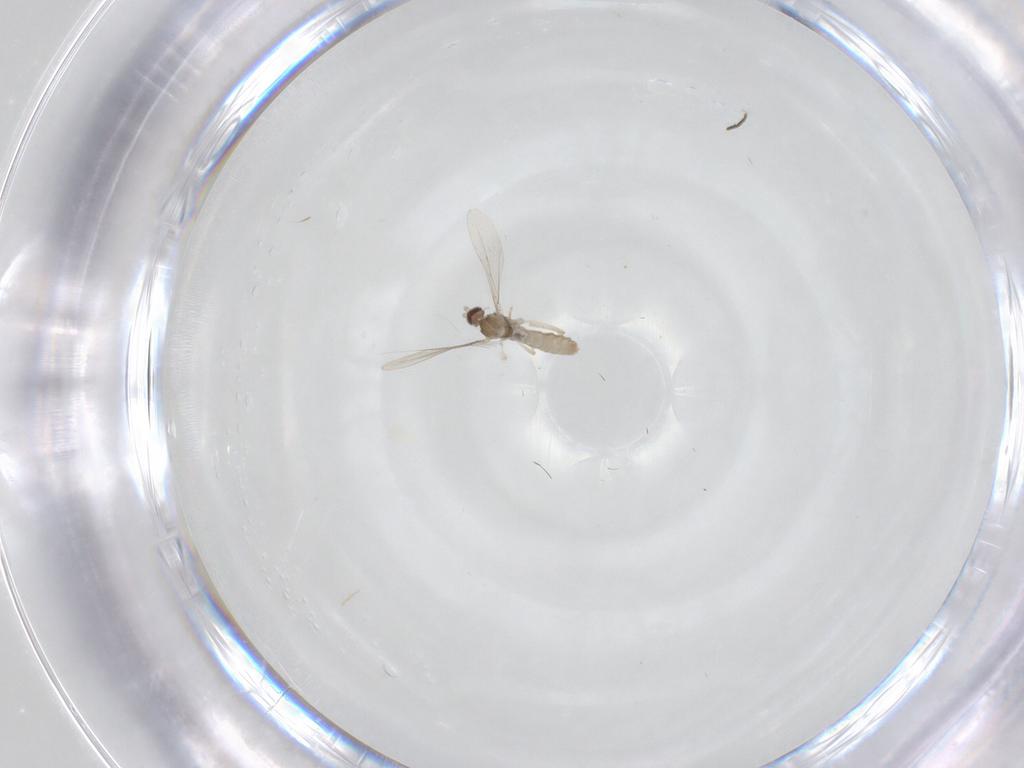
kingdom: Animalia
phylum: Arthropoda
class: Insecta
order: Diptera
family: Cecidomyiidae
